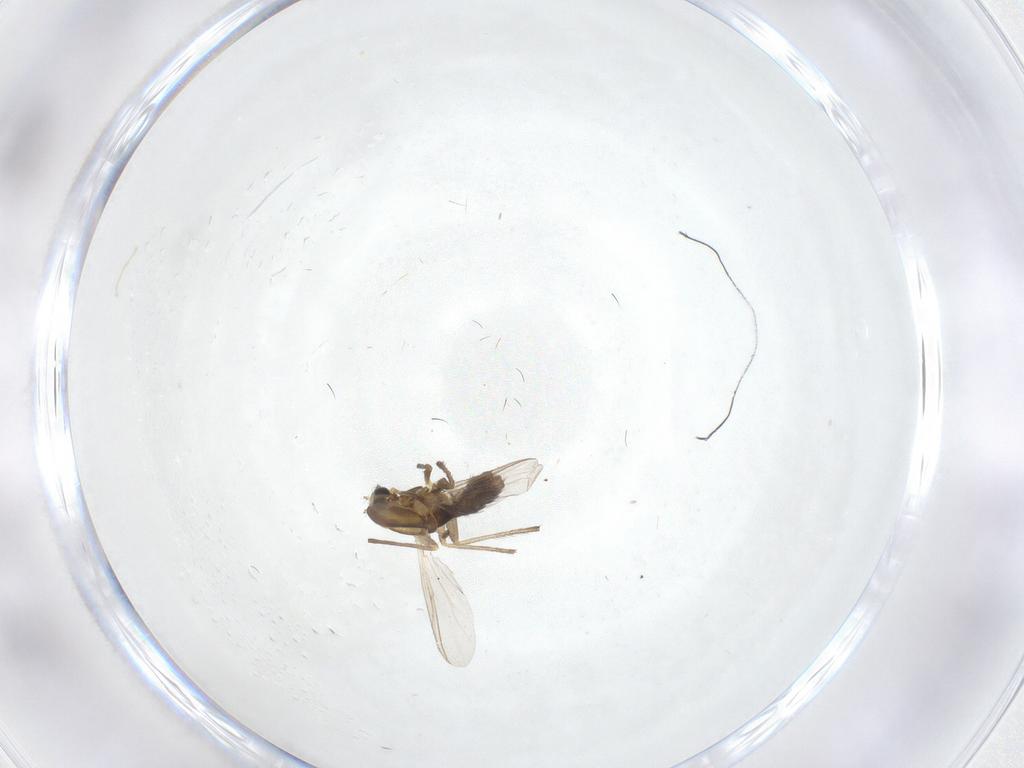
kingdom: Animalia
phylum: Arthropoda
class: Insecta
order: Diptera
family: Chironomidae
